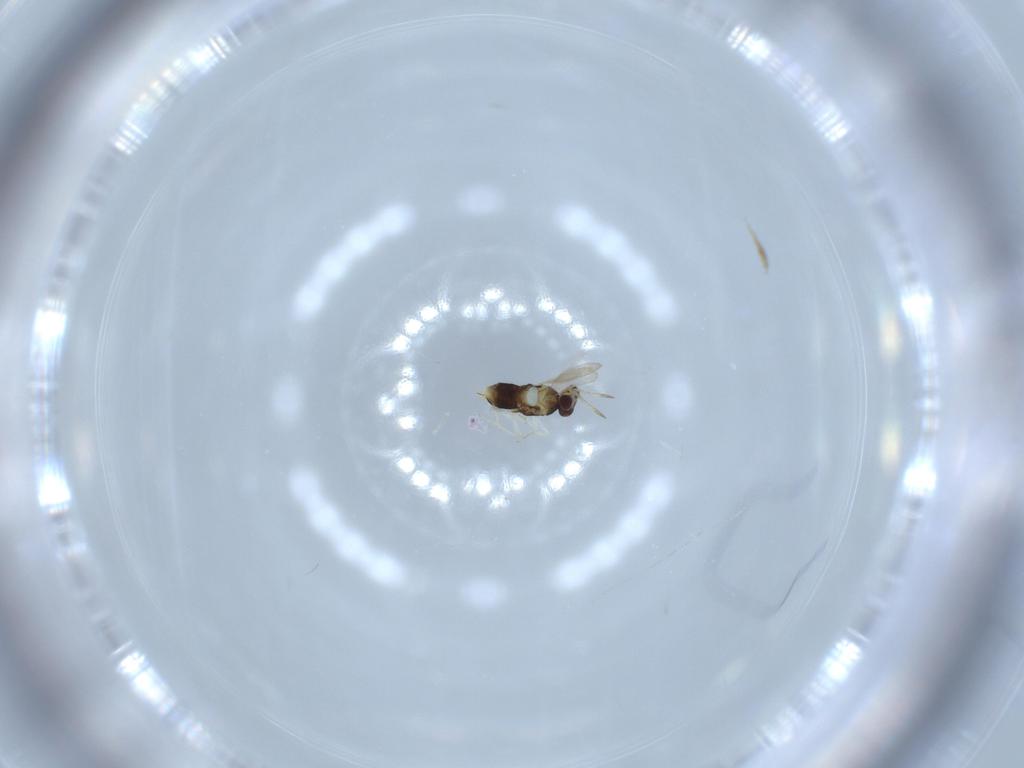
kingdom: Animalia
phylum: Arthropoda
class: Insecta
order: Hymenoptera
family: Aphelinidae
